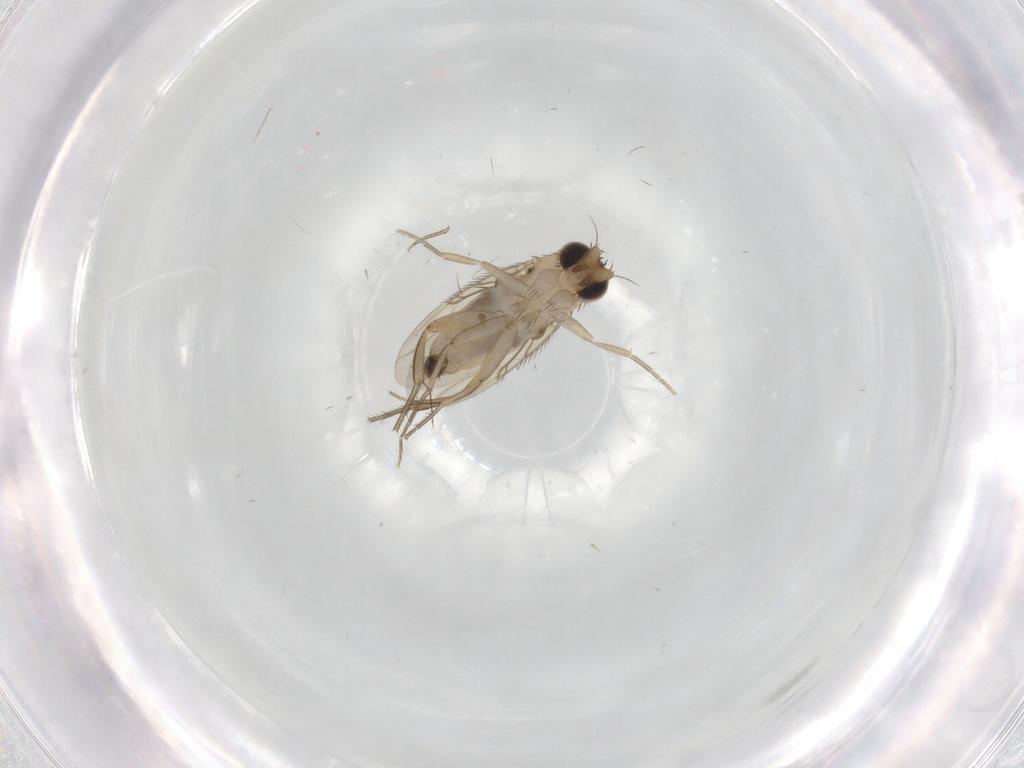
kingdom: Animalia
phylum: Arthropoda
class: Insecta
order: Diptera
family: Phoridae
